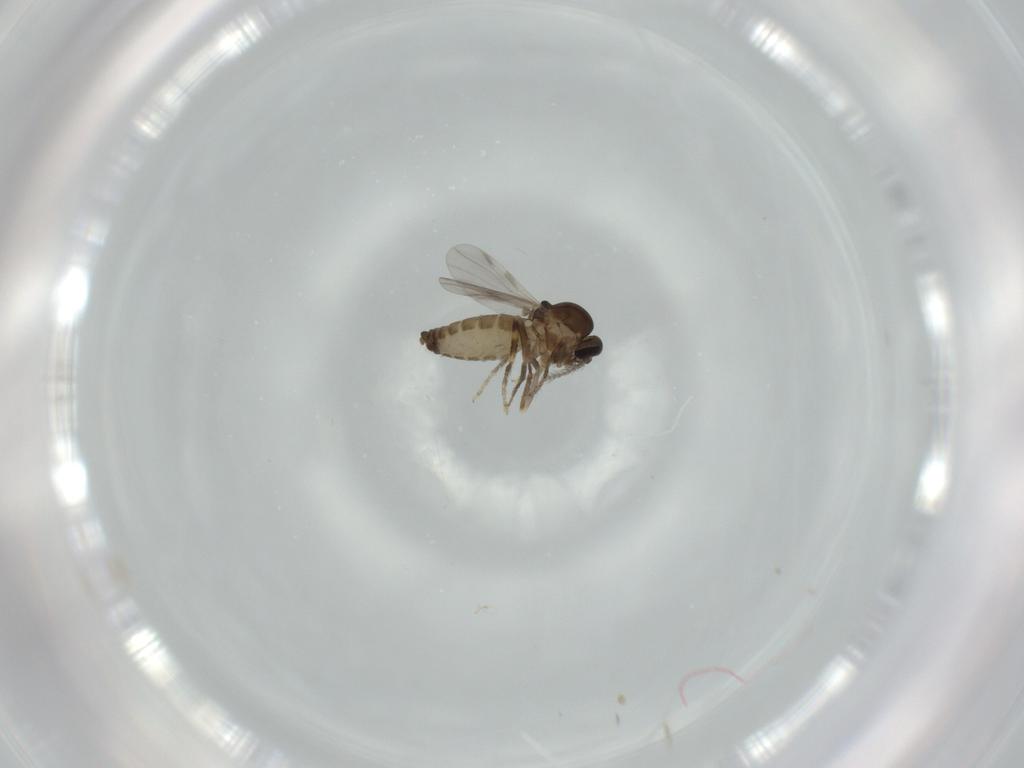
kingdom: Animalia
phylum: Arthropoda
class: Insecta
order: Diptera
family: Ceratopogonidae
